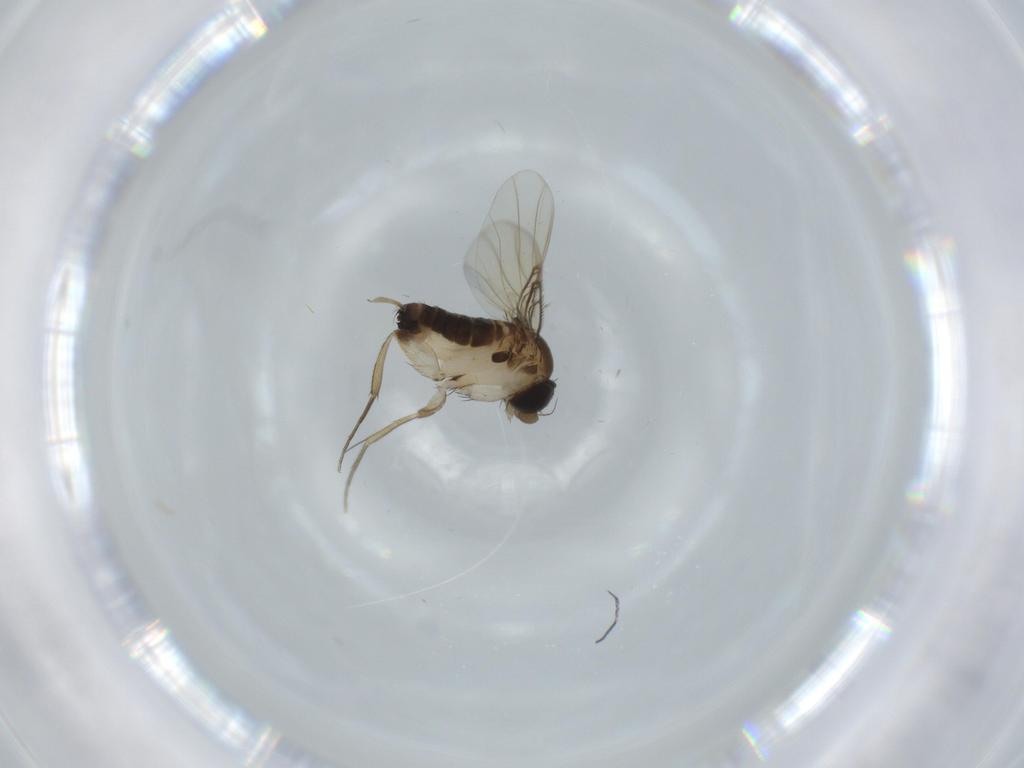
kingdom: Animalia
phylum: Arthropoda
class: Insecta
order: Diptera
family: Phoridae
